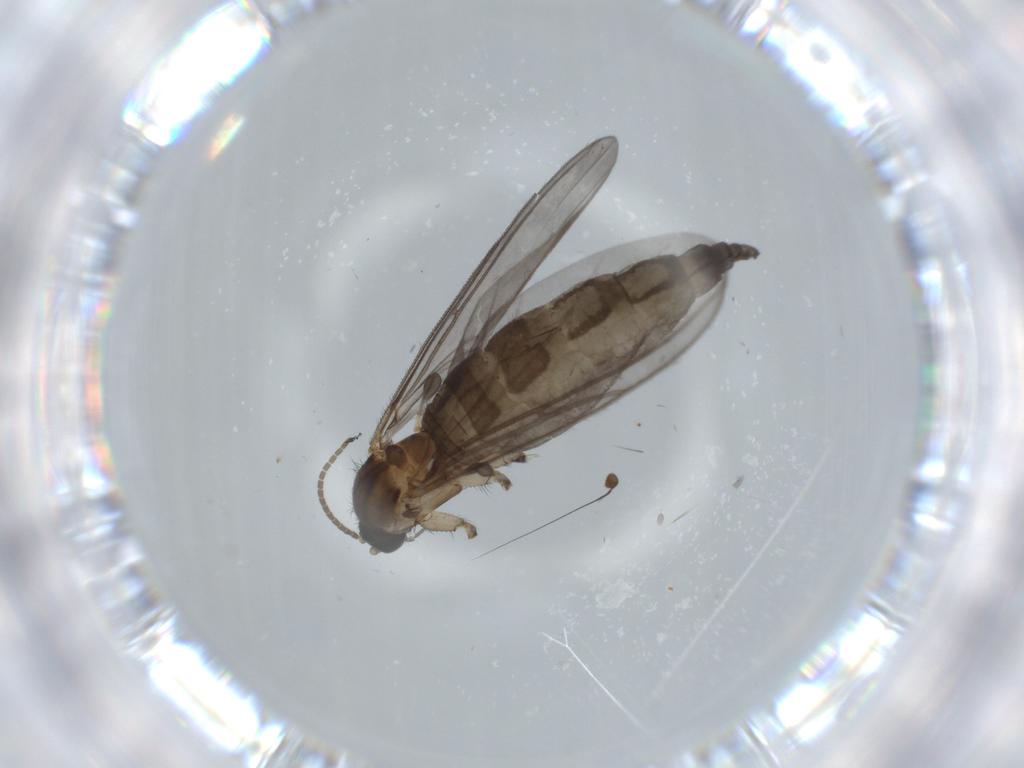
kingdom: Animalia
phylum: Arthropoda
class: Insecta
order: Diptera
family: Dolichopodidae
